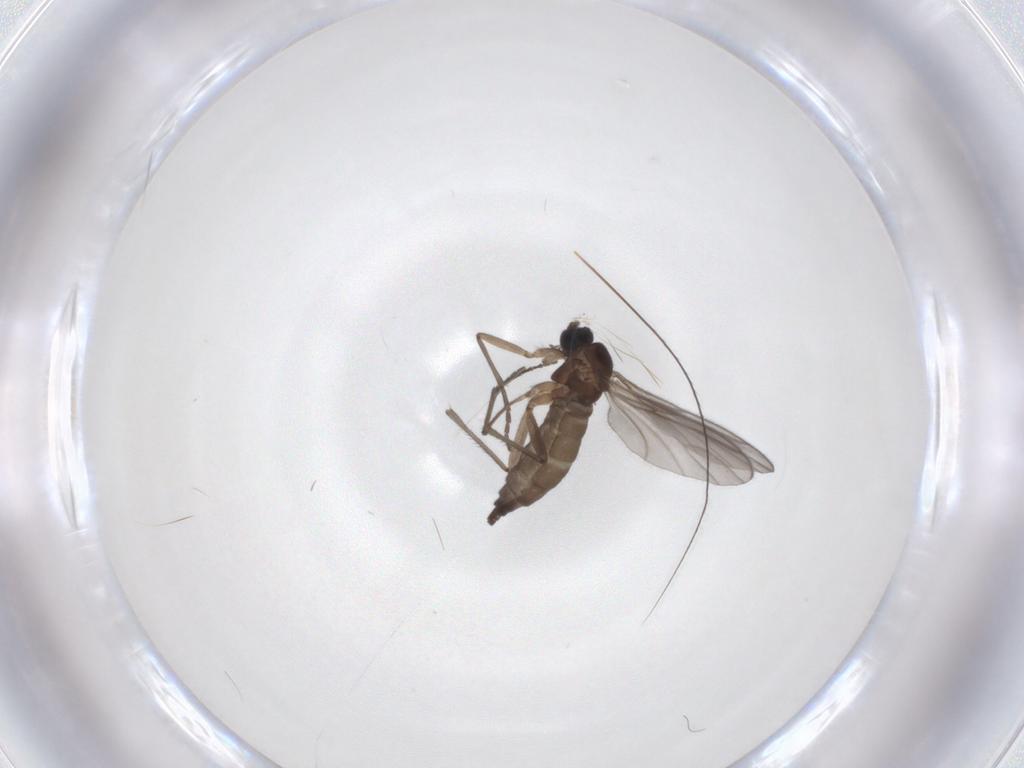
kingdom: Animalia
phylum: Arthropoda
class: Insecta
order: Diptera
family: Sciaridae
